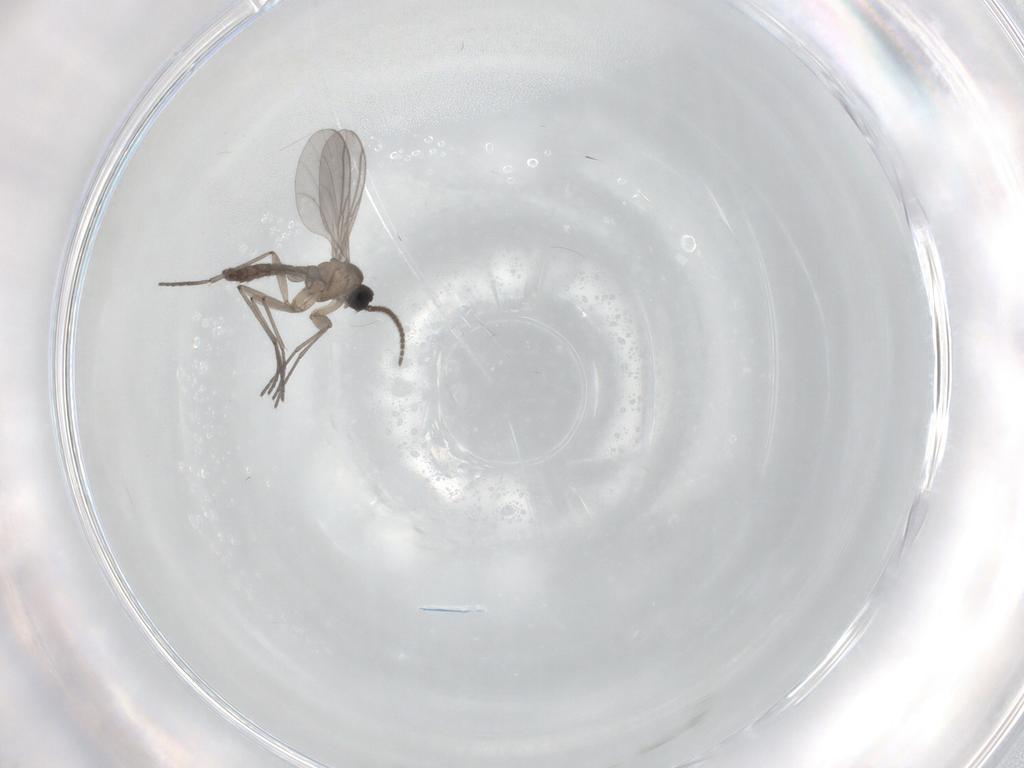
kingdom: Animalia
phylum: Arthropoda
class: Insecta
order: Diptera
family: Chironomidae
